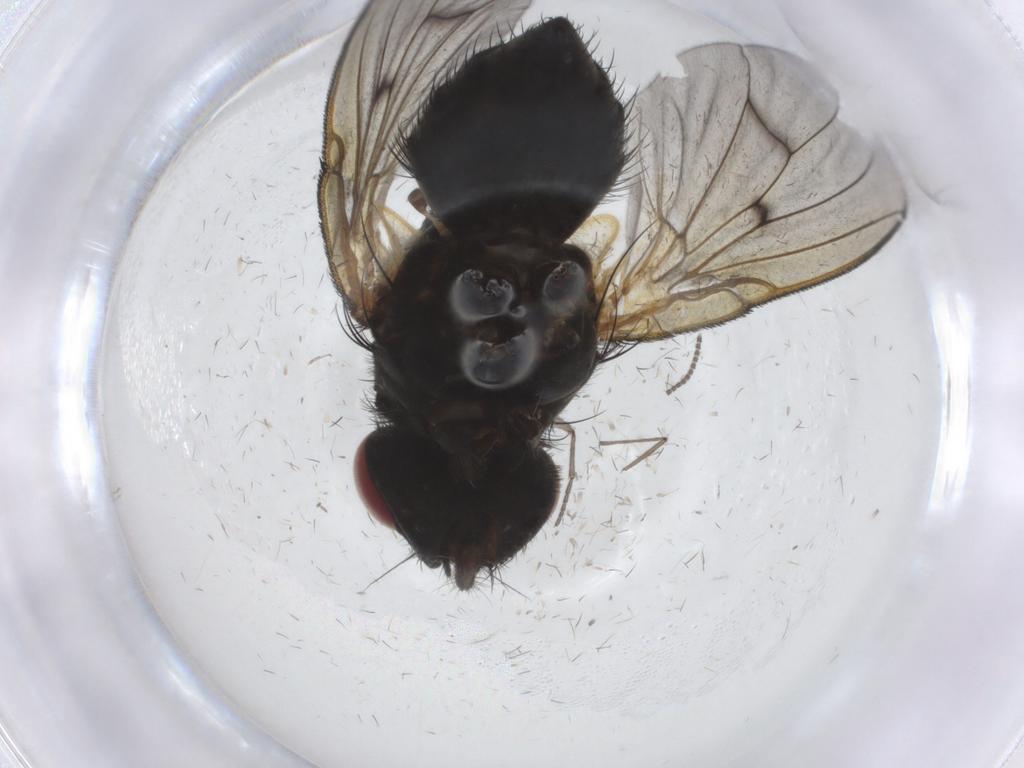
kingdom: Animalia
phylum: Arthropoda
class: Insecta
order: Diptera
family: Muscidae
